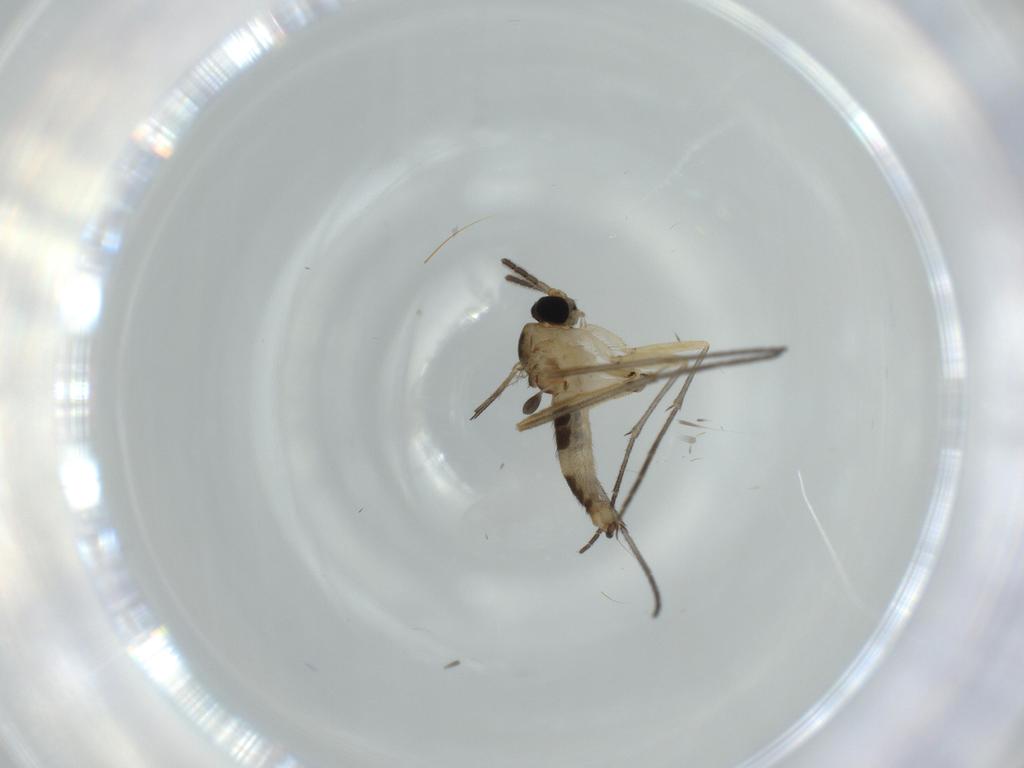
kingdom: Animalia
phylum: Arthropoda
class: Insecta
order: Diptera
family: Sciaridae
